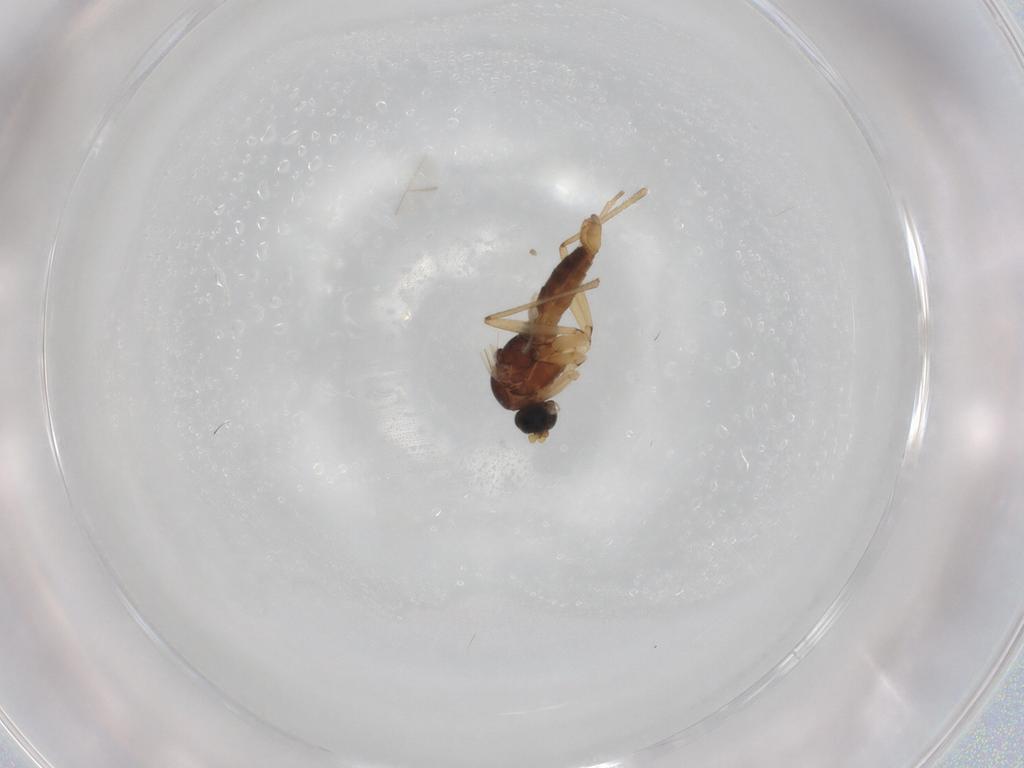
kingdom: Animalia
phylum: Arthropoda
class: Insecta
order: Diptera
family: Sciaridae
